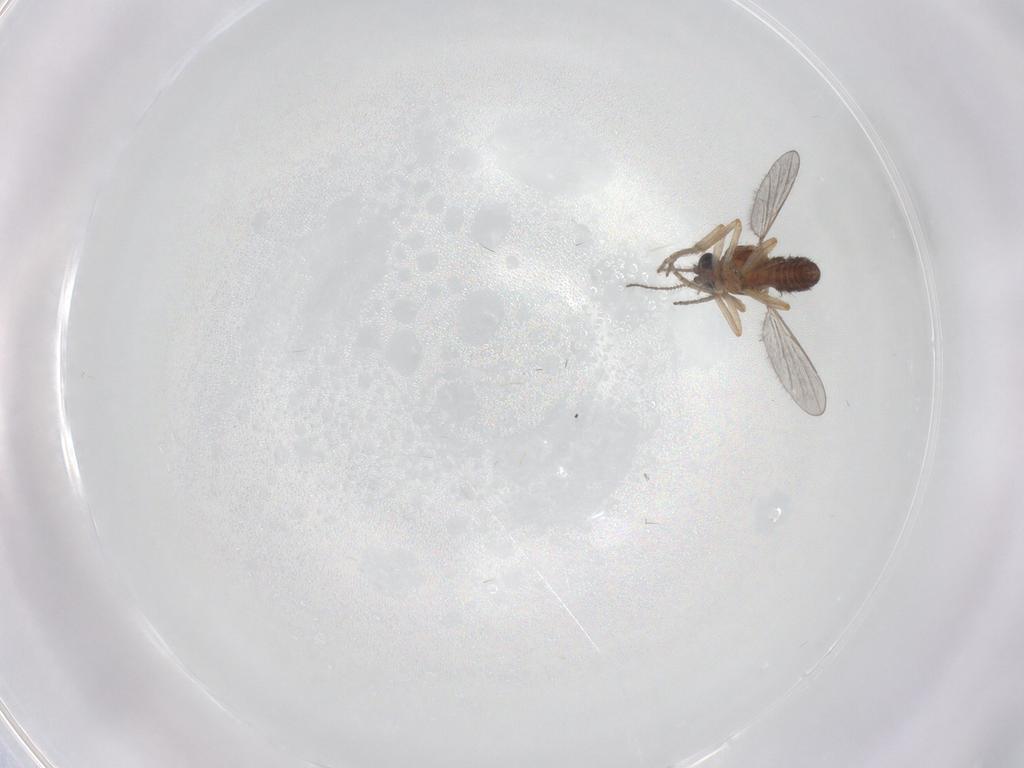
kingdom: Animalia
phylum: Arthropoda
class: Insecta
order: Diptera
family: Ceratopogonidae
